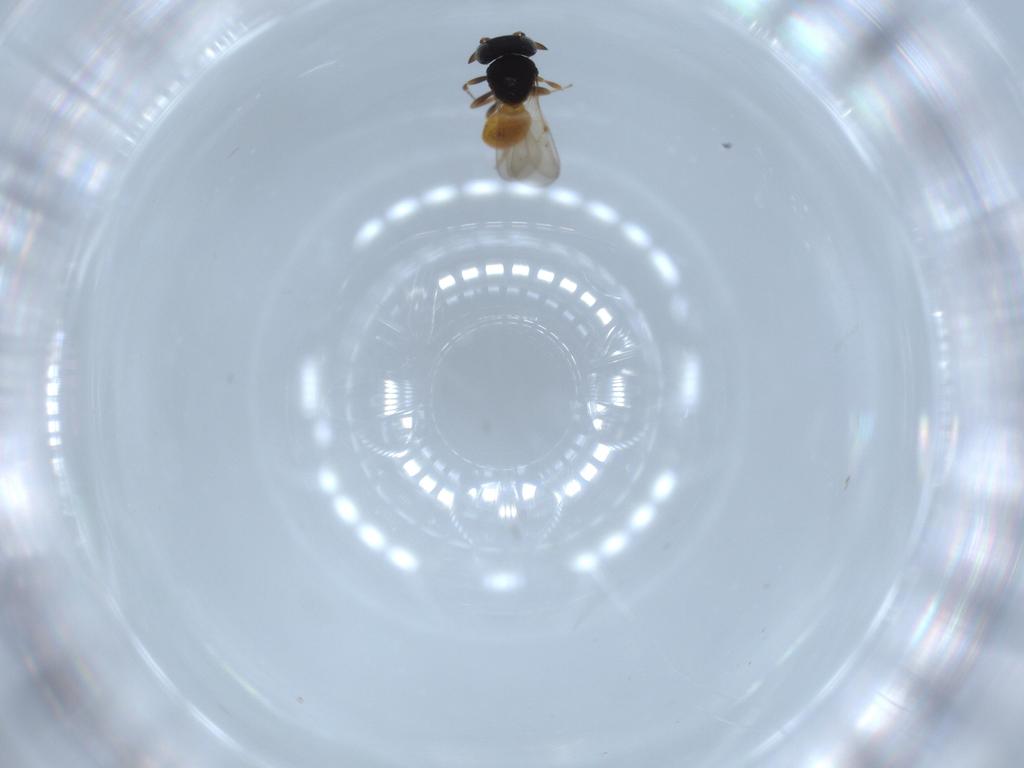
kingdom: Animalia
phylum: Arthropoda
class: Insecta
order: Hymenoptera
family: Scelionidae
